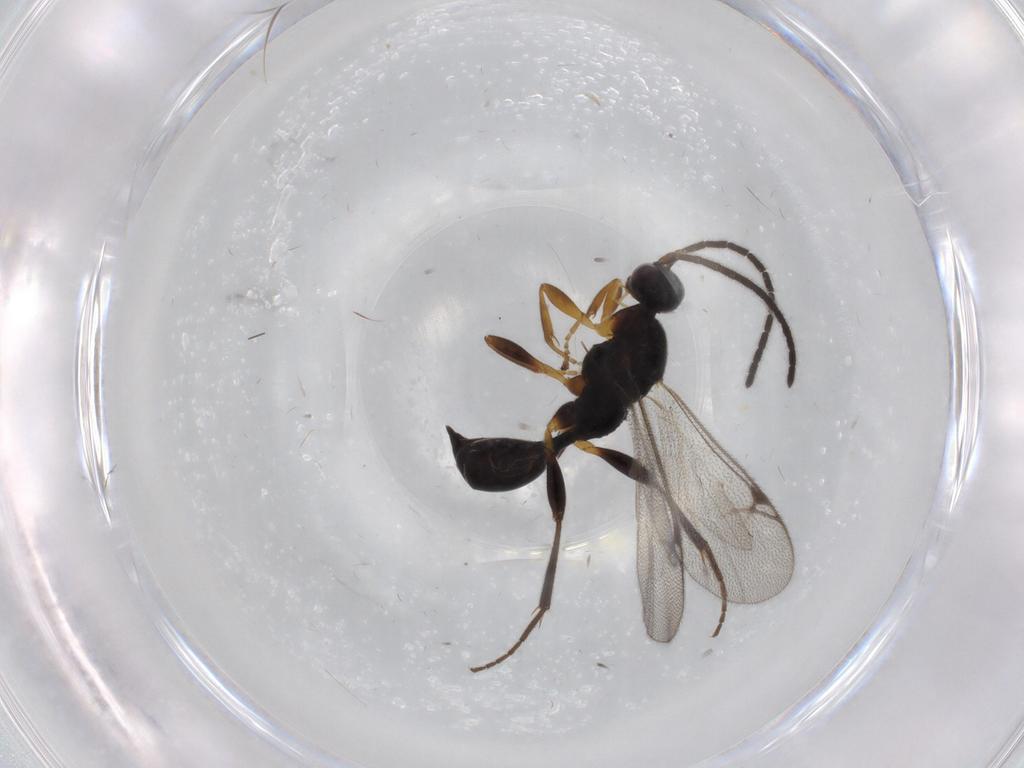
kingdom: Animalia
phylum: Arthropoda
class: Insecta
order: Hymenoptera
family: Proctotrupidae
